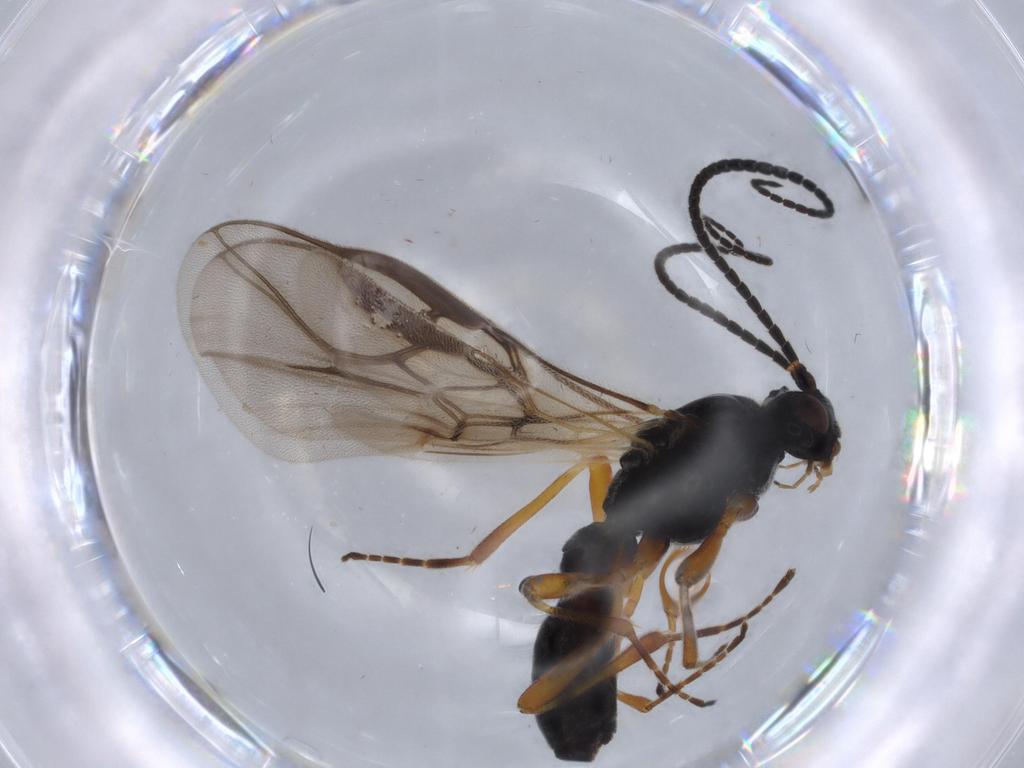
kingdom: Animalia
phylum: Arthropoda
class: Insecta
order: Hymenoptera
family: Braconidae
